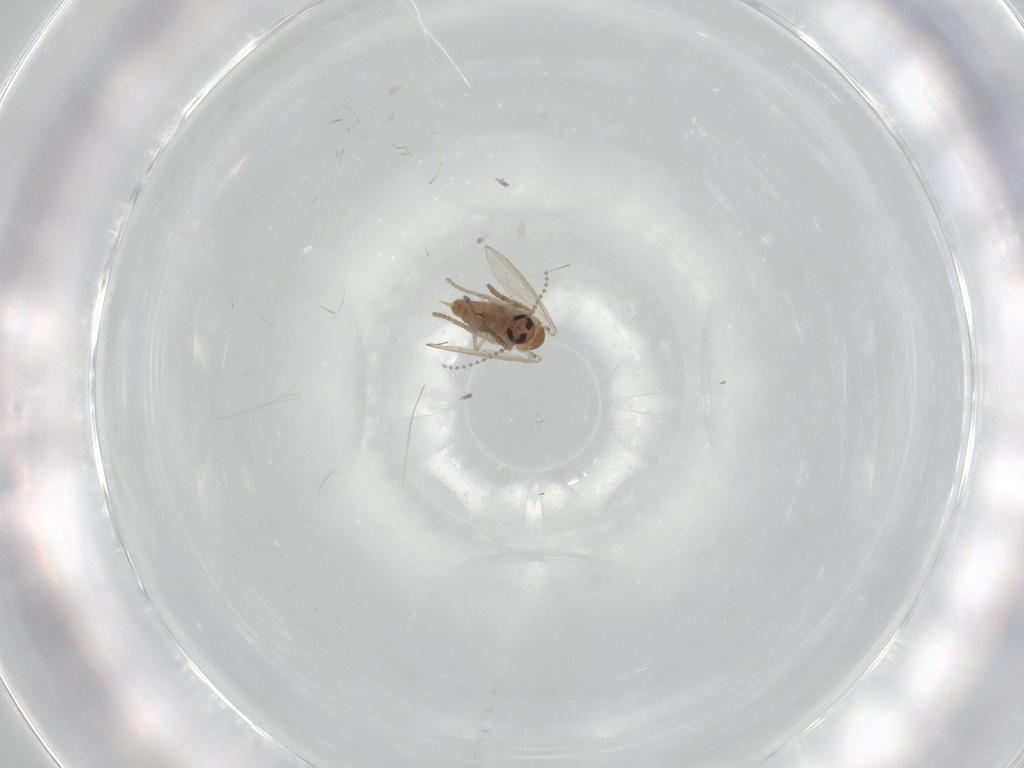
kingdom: Animalia
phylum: Arthropoda
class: Insecta
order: Diptera
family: Psychodidae
